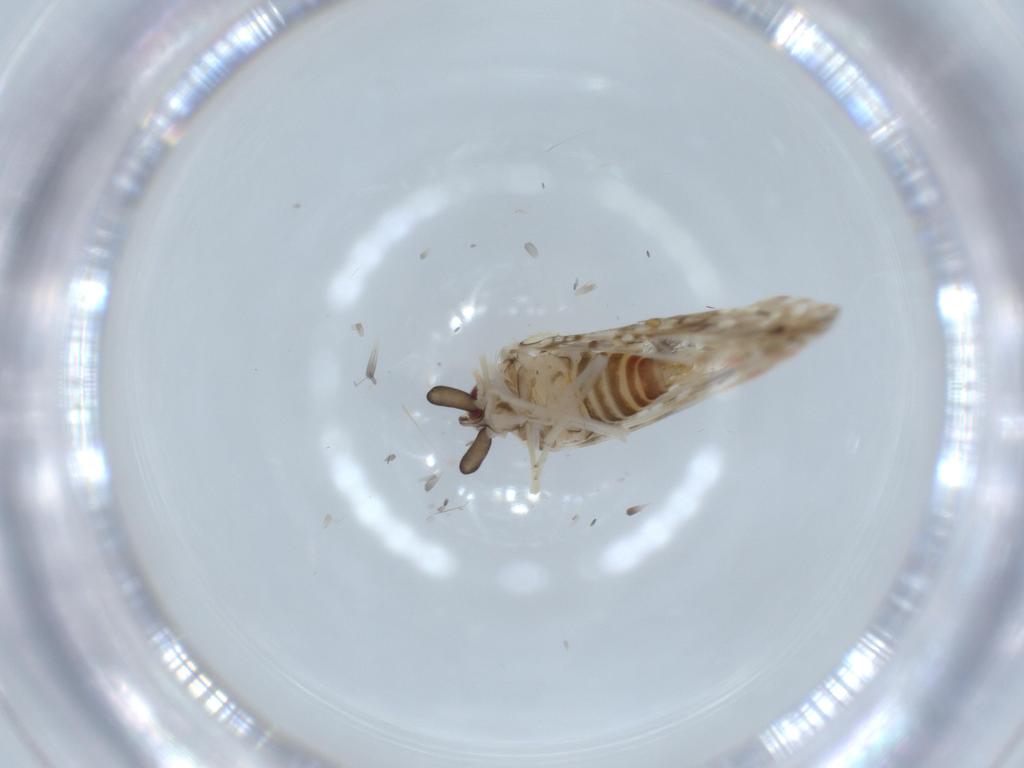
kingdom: Animalia
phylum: Arthropoda
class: Insecta
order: Hemiptera
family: Derbidae
